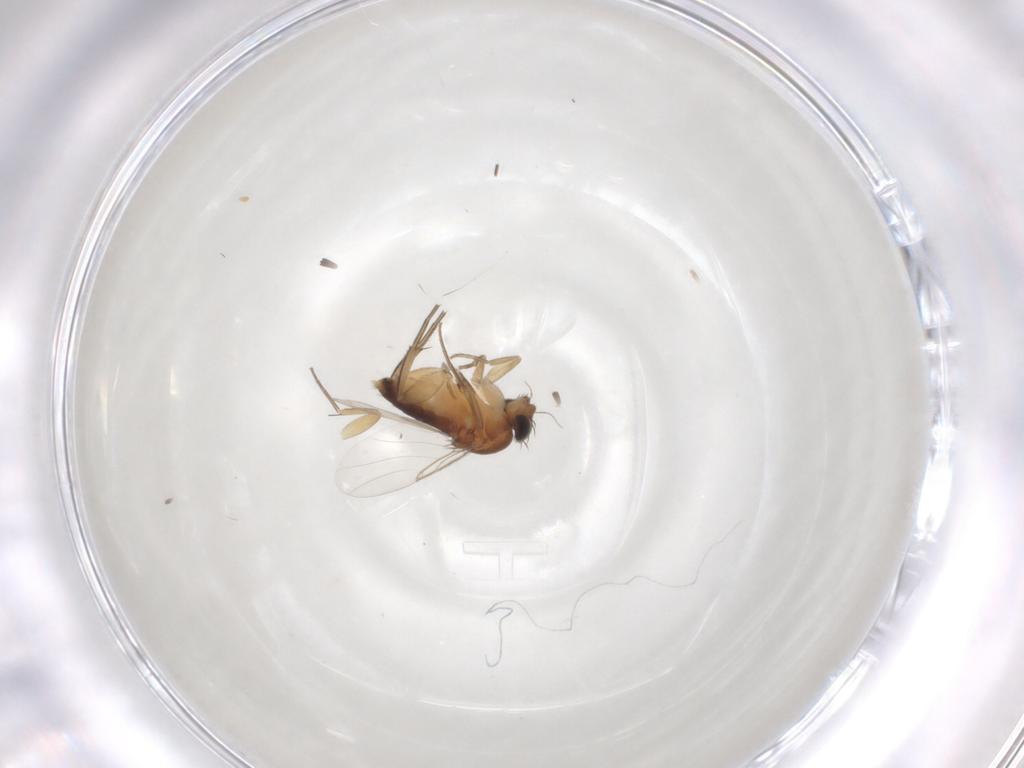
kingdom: Animalia
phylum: Arthropoda
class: Insecta
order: Diptera
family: Phoridae
